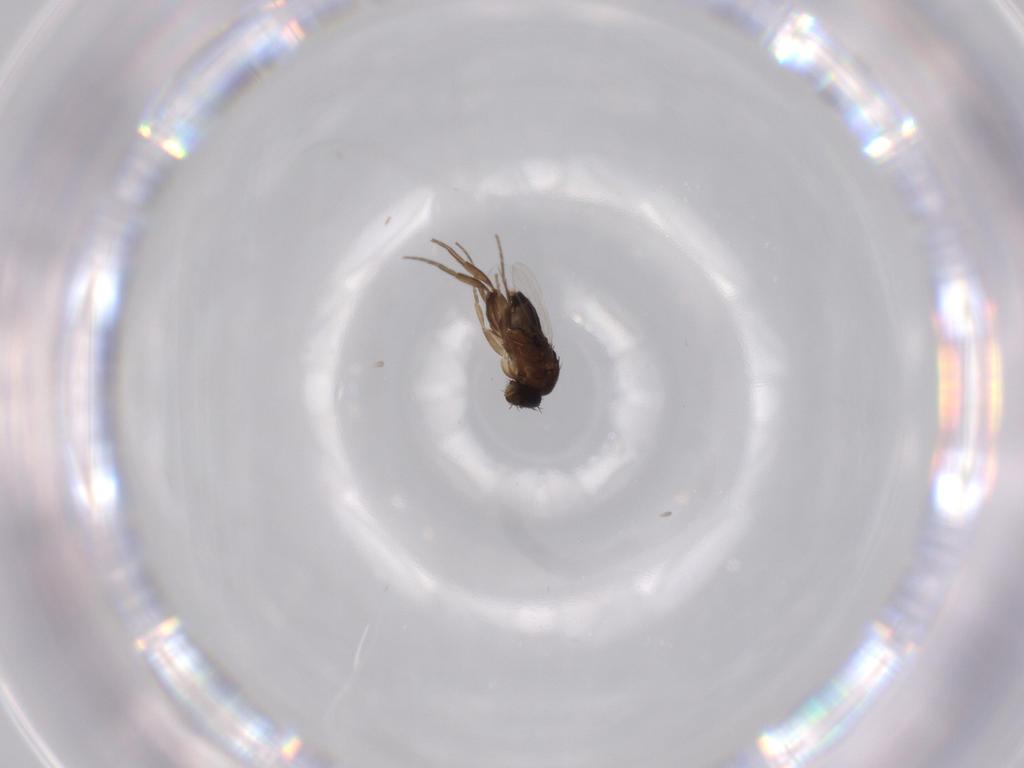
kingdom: Animalia
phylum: Arthropoda
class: Insecta
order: Diptera
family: Phoridae
